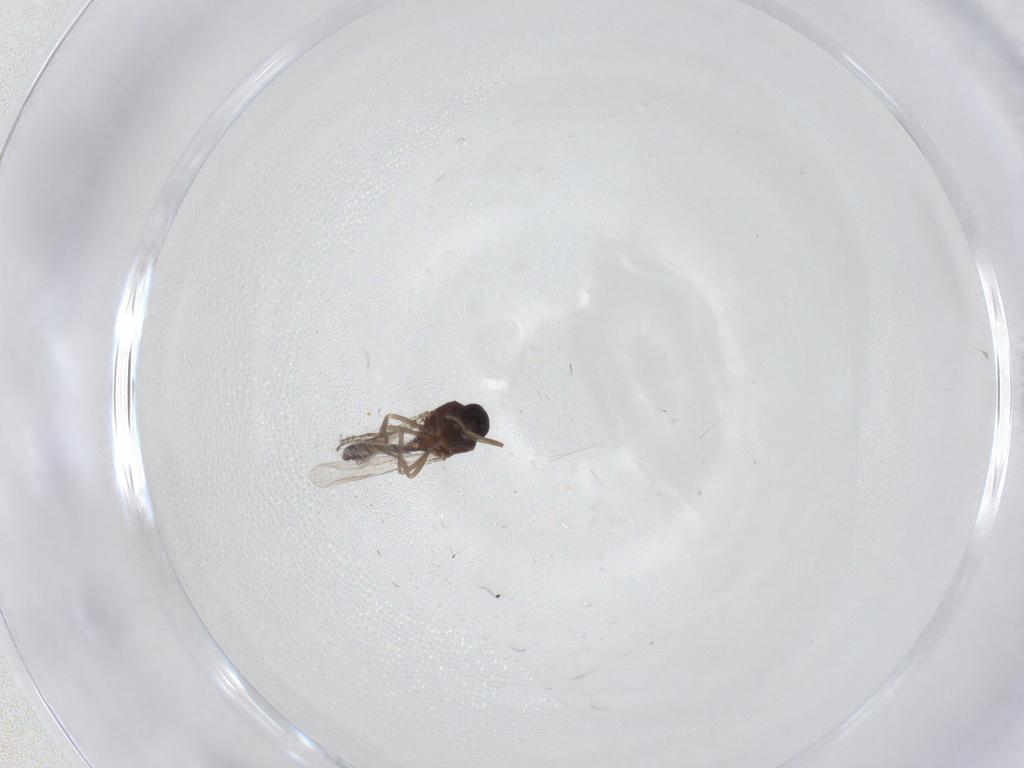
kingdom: Animalia
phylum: Arthropoda
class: Insecta
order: Diptera
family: Ceratopogonidae
